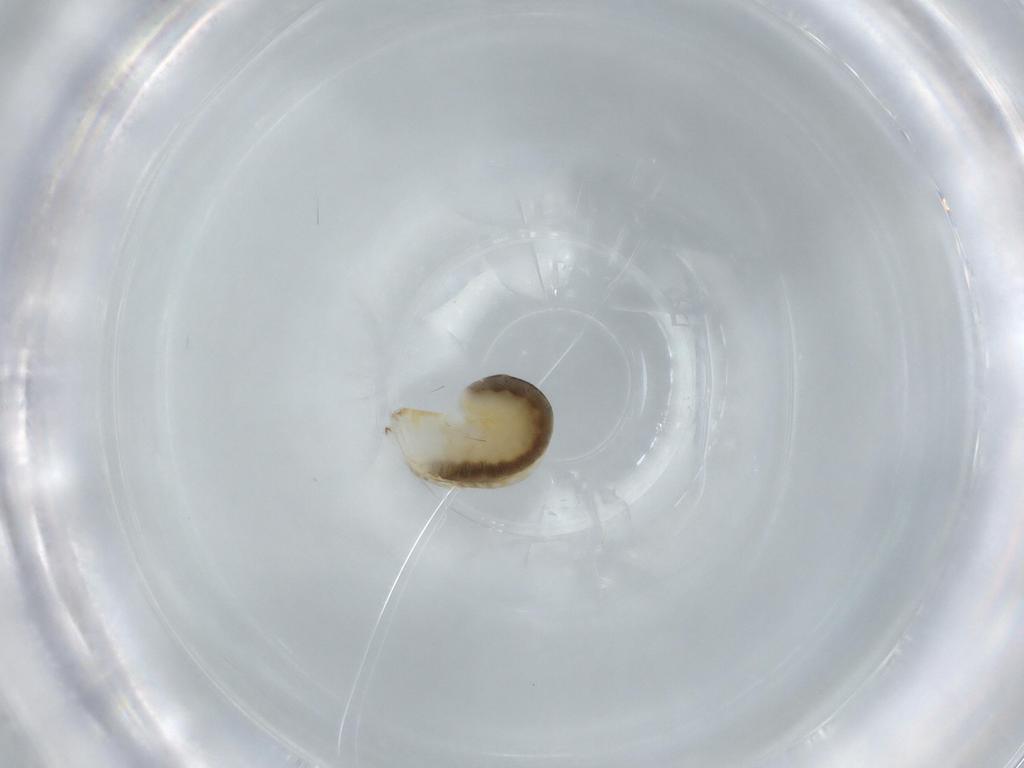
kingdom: Animalia
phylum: Arthropoda
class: Insecta
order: Hymenoptera
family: Dryinidae
